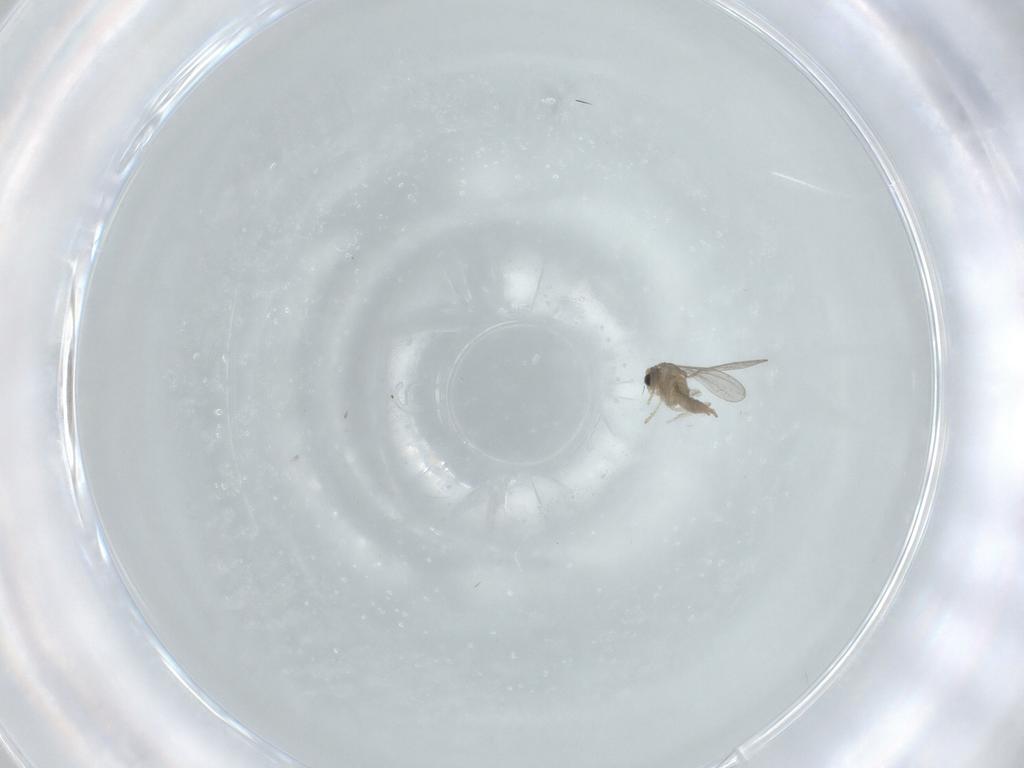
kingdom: Animalia
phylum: Arthropoda
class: Insecta
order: Diptera
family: Cecidomyiidae
